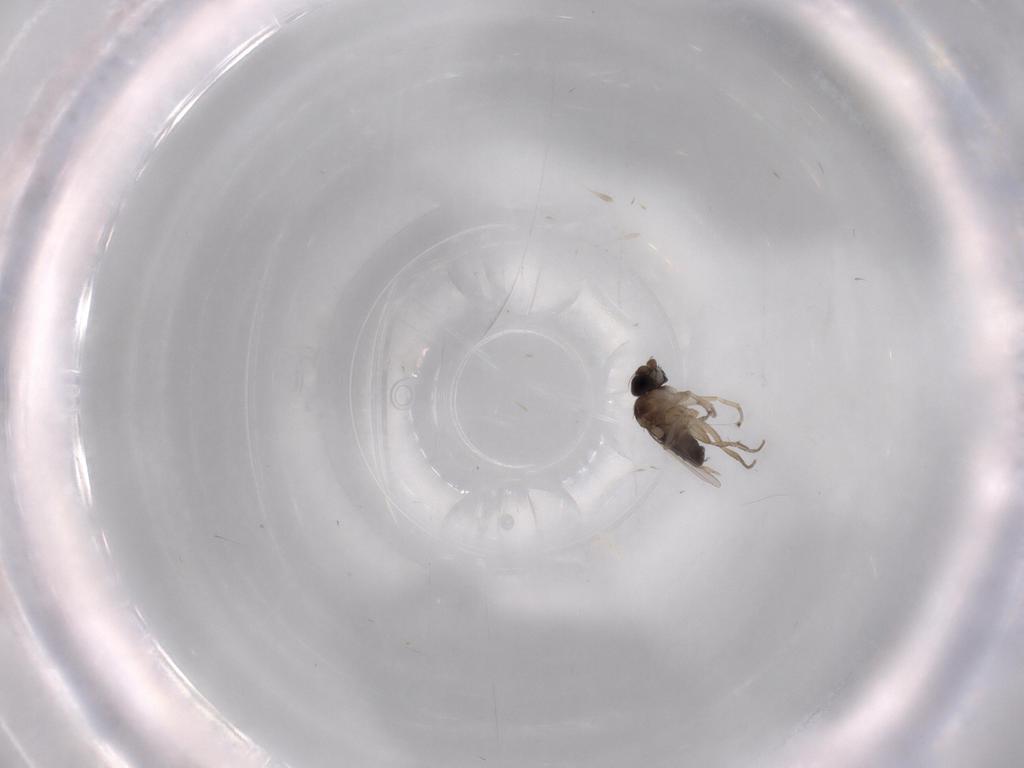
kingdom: Animalia
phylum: Arthropoda
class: Insecta
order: Diptera
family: Phoridae
